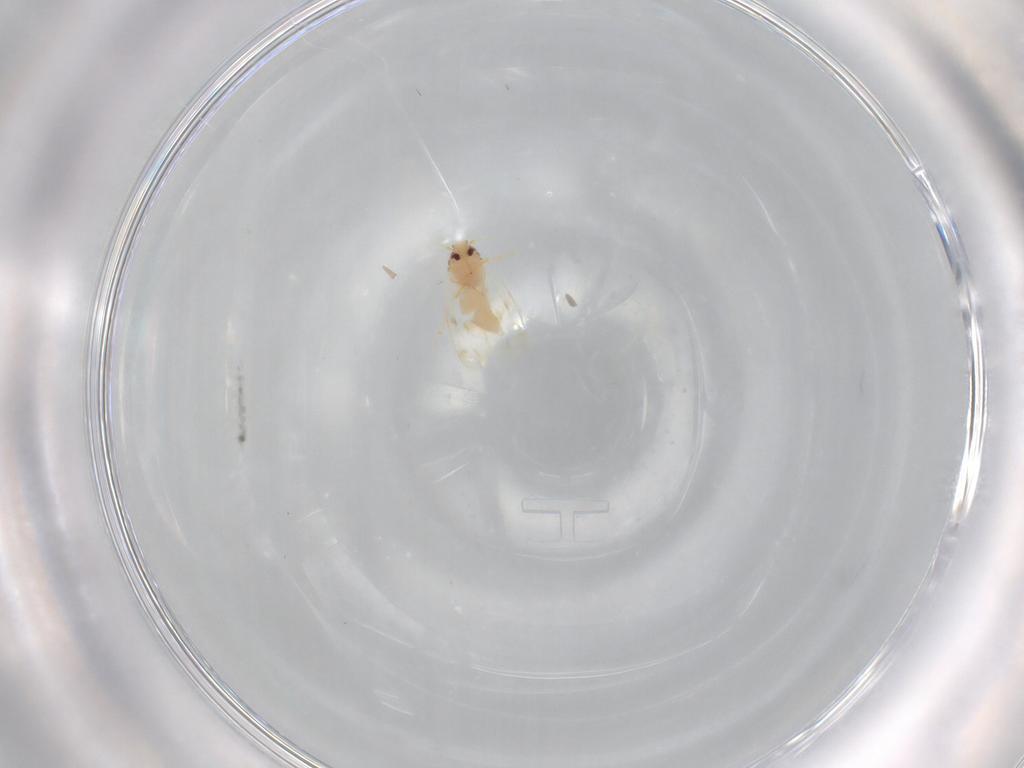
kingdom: Animalia
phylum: Arthropoda
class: Insecta
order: Hemiptera
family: Aleyrodidae
